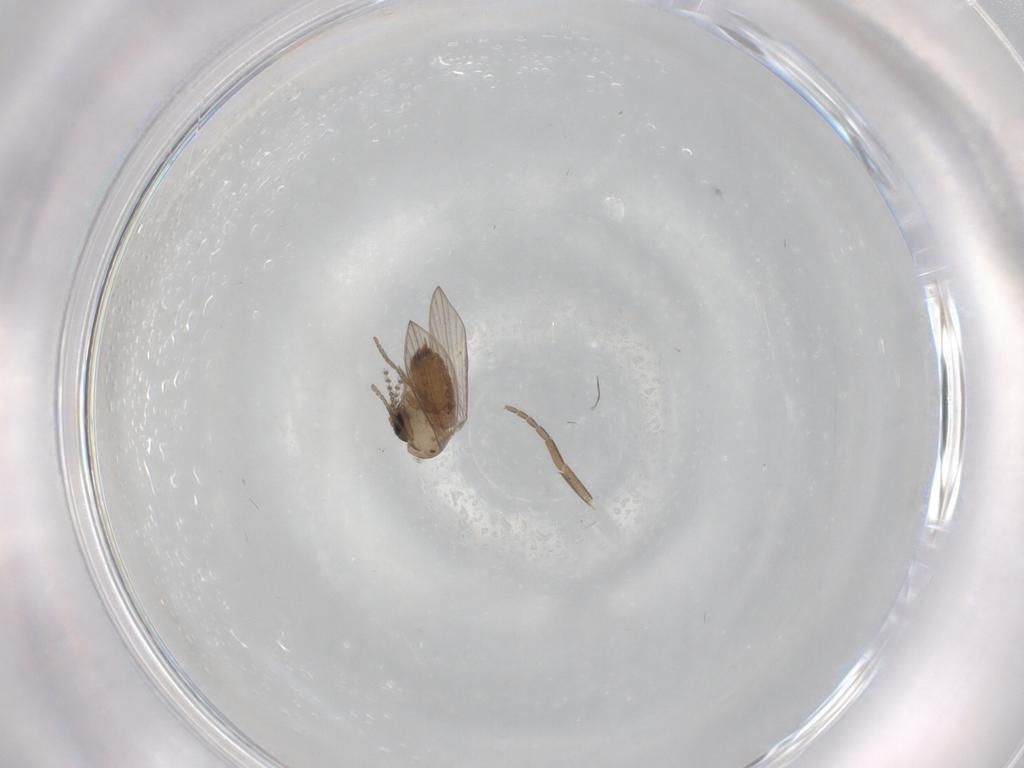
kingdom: Animalia
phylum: Arthropoda
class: Insecta
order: Diptera
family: Psychodidae
